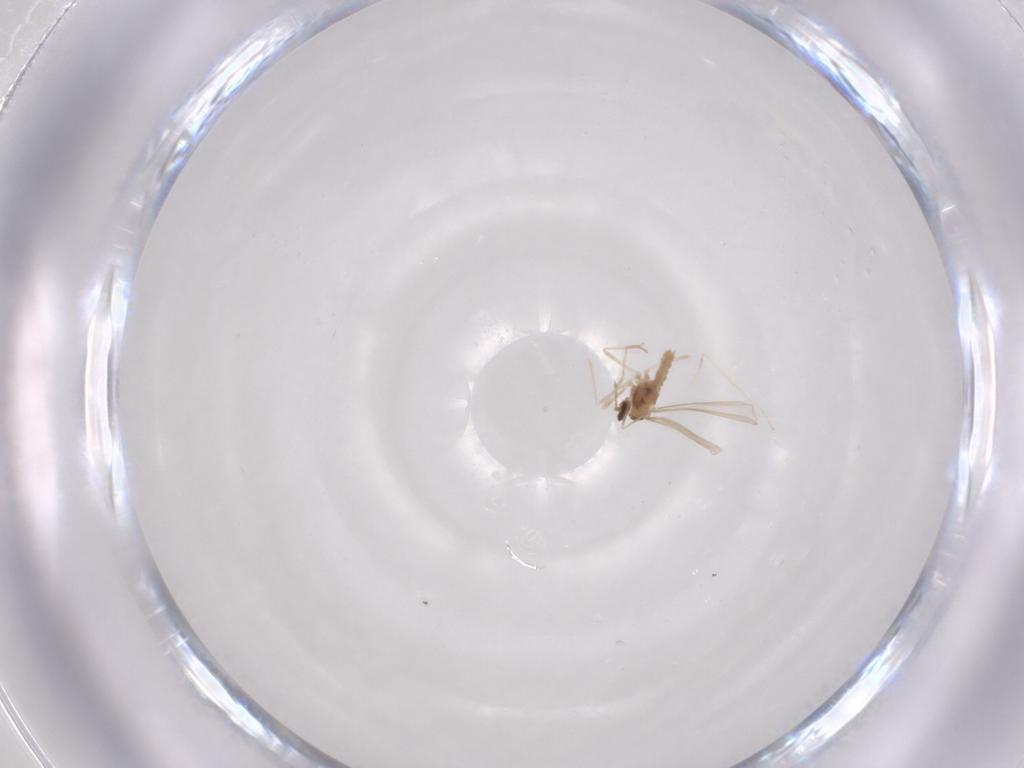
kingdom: Animalia
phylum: Arthropoda
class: Insecta
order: Diptera
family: Cecidomyiidae
